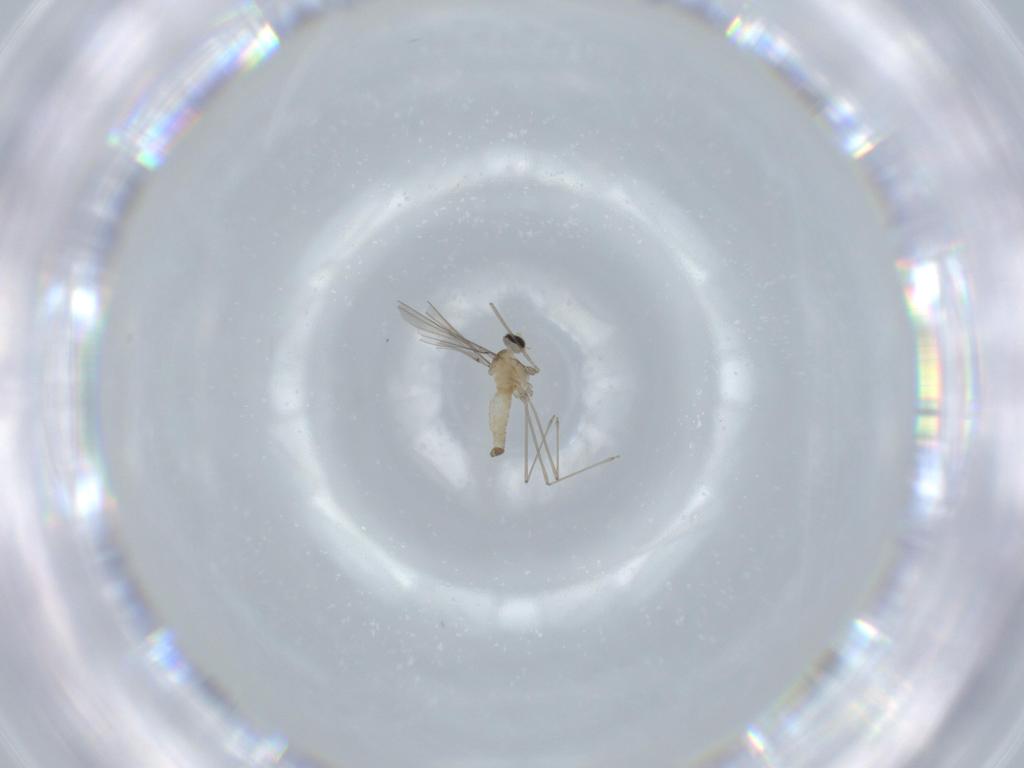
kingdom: Animalia
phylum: Arthropoda
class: Insecta
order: Diptera
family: Cecidomyiidae
